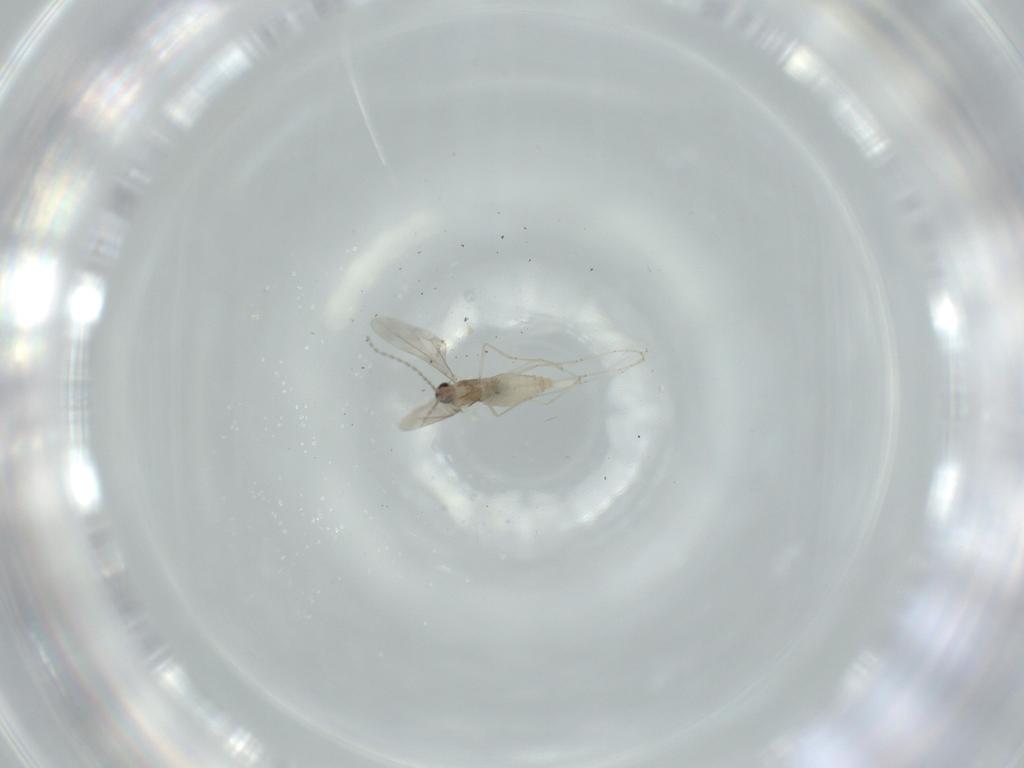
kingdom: Animalia
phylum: Arthropoda
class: Insecta
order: Diptera
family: Cecidomyiidae
